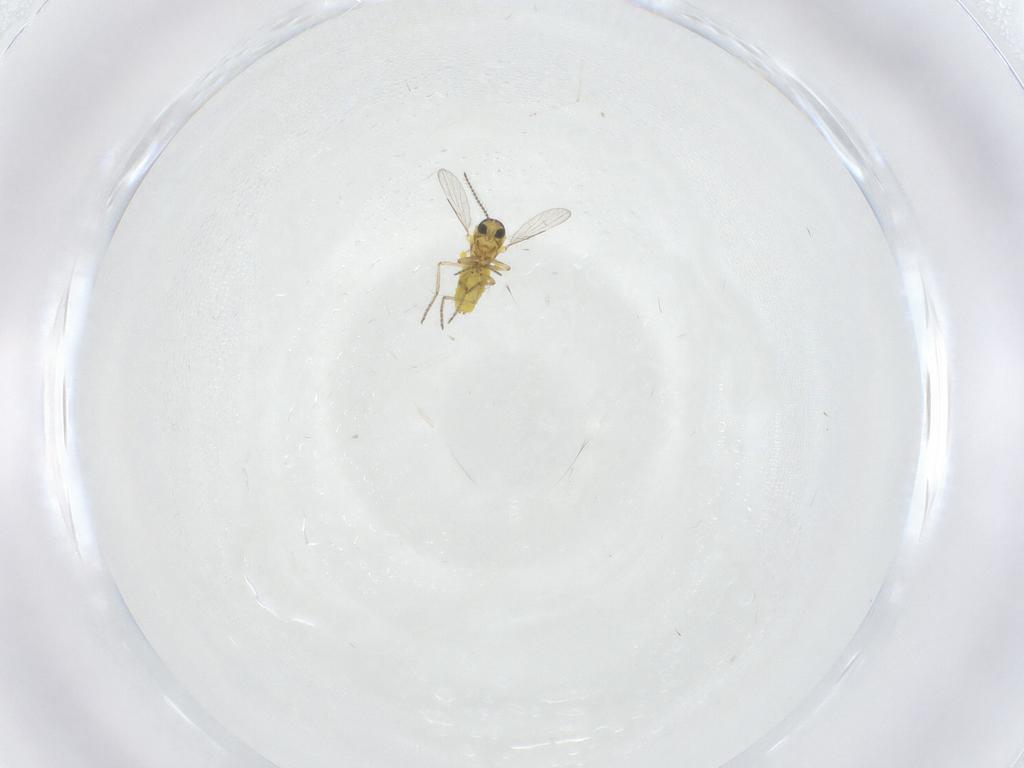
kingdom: Animalia
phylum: Arthropoda
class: Insecta
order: Diptera
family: Ceratopogonidae
